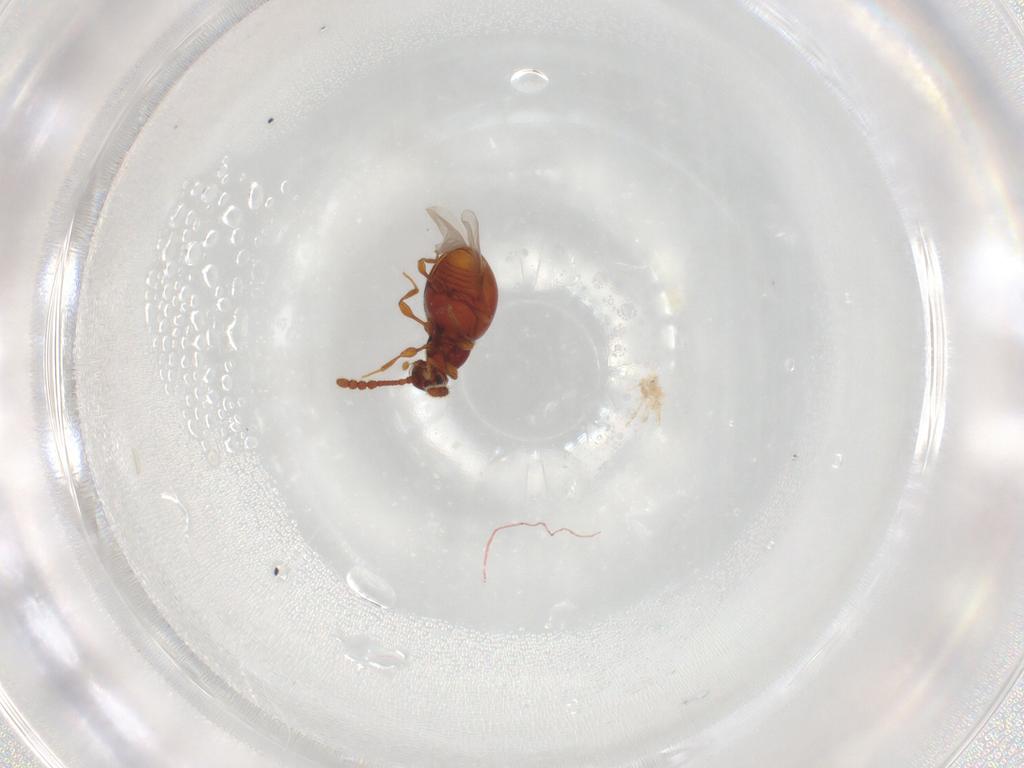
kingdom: Animalia
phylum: Arthropoda
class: Insecta
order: Coleoptera
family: Staphylinidae
